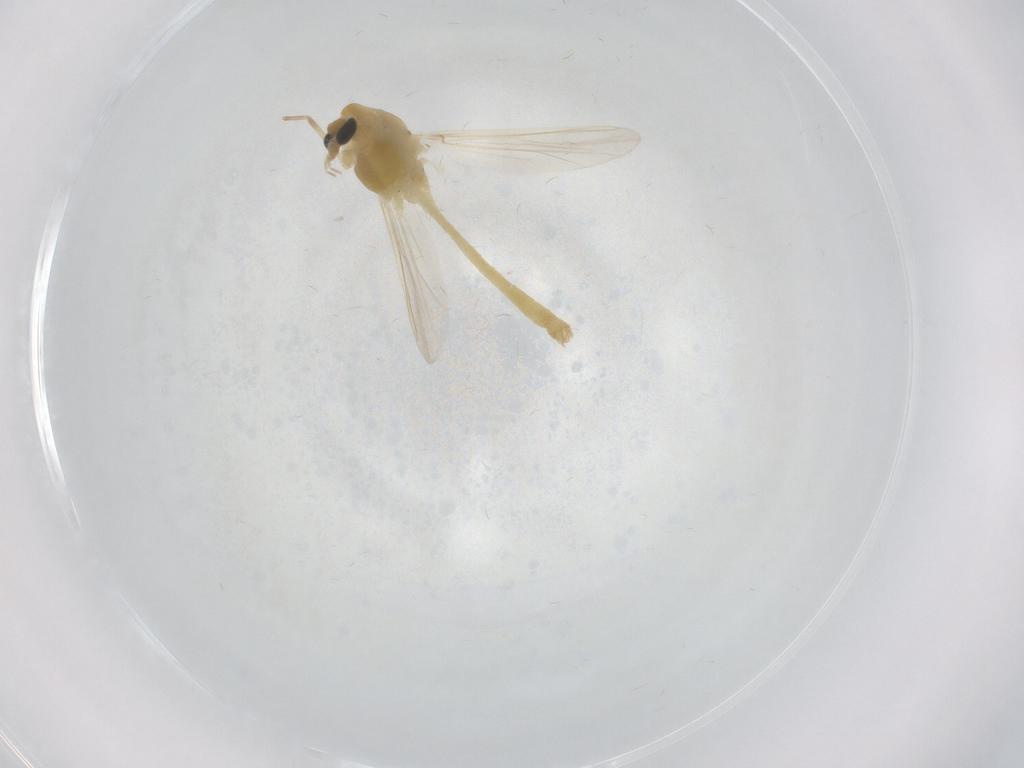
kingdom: Animalia
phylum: Arthropoda
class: Insecta
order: Diptera
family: Chironomidae
